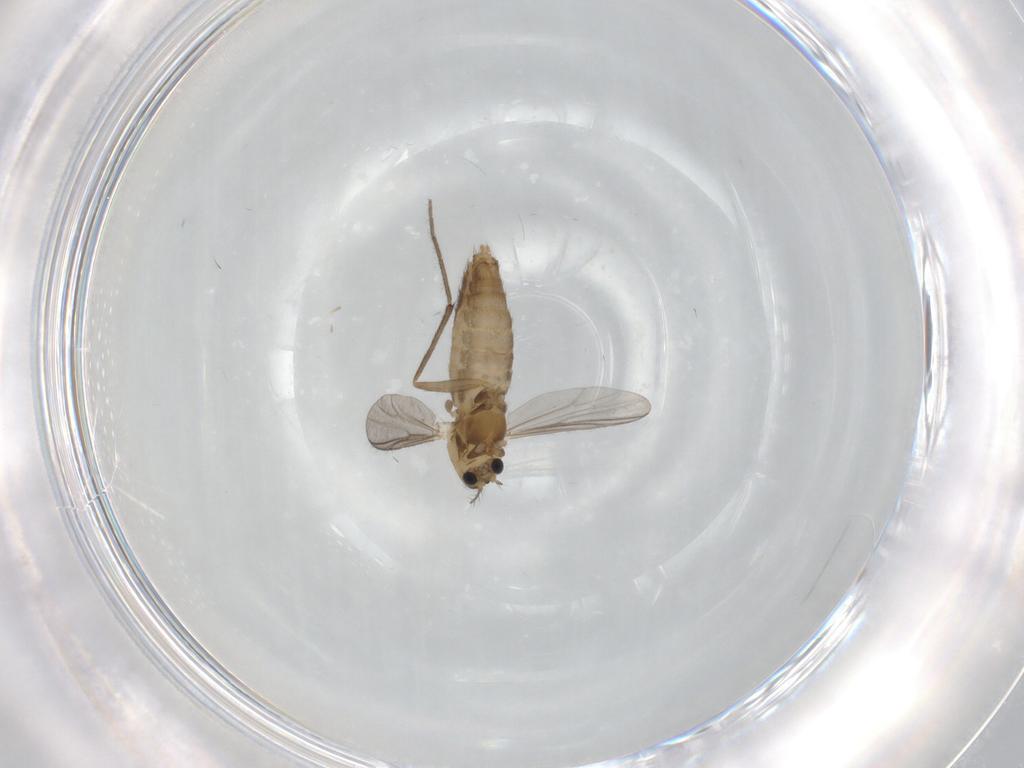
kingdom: Animalia
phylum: Arthropoda
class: Insecta
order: Diptera
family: Chironomidae
